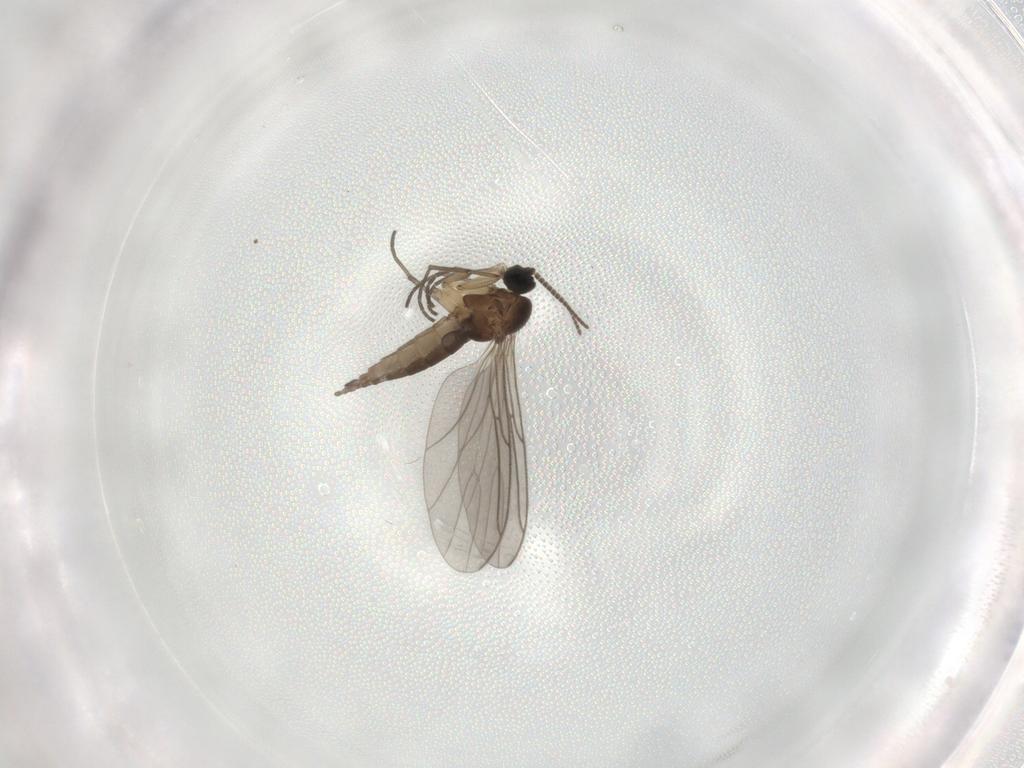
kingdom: Animalia
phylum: Arthropoda
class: Insecta
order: Diptera
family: Sciaridae
